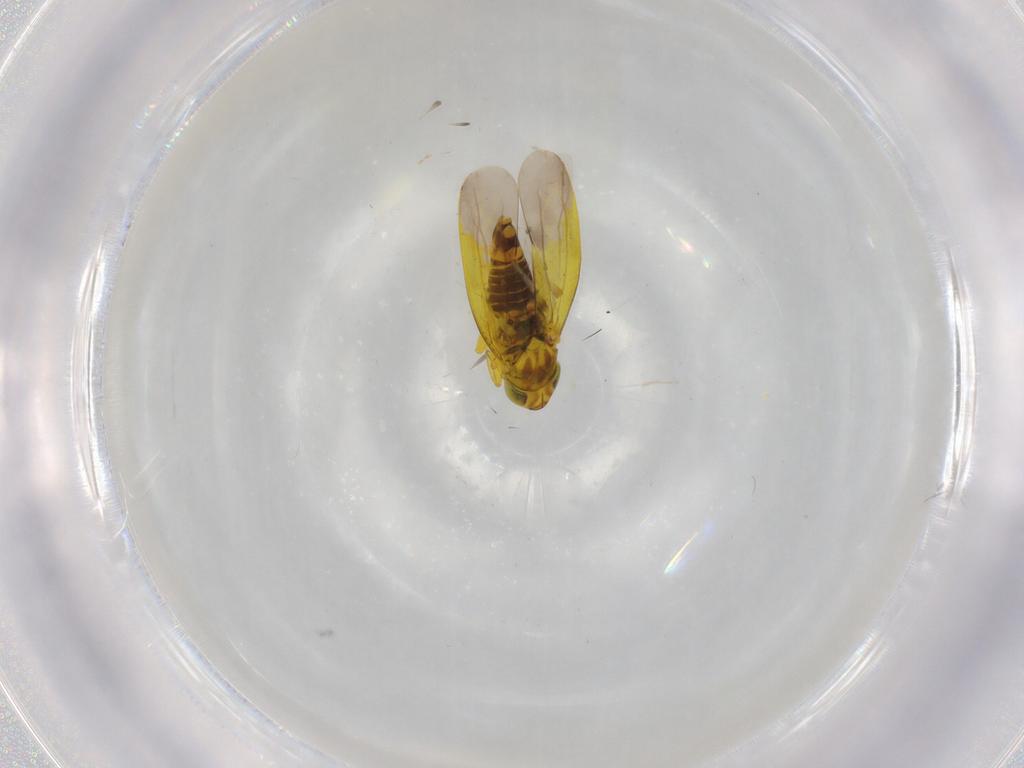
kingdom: Animalia
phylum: Arthropoda
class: Insecta
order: Hemiptera
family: Cicadellidae
